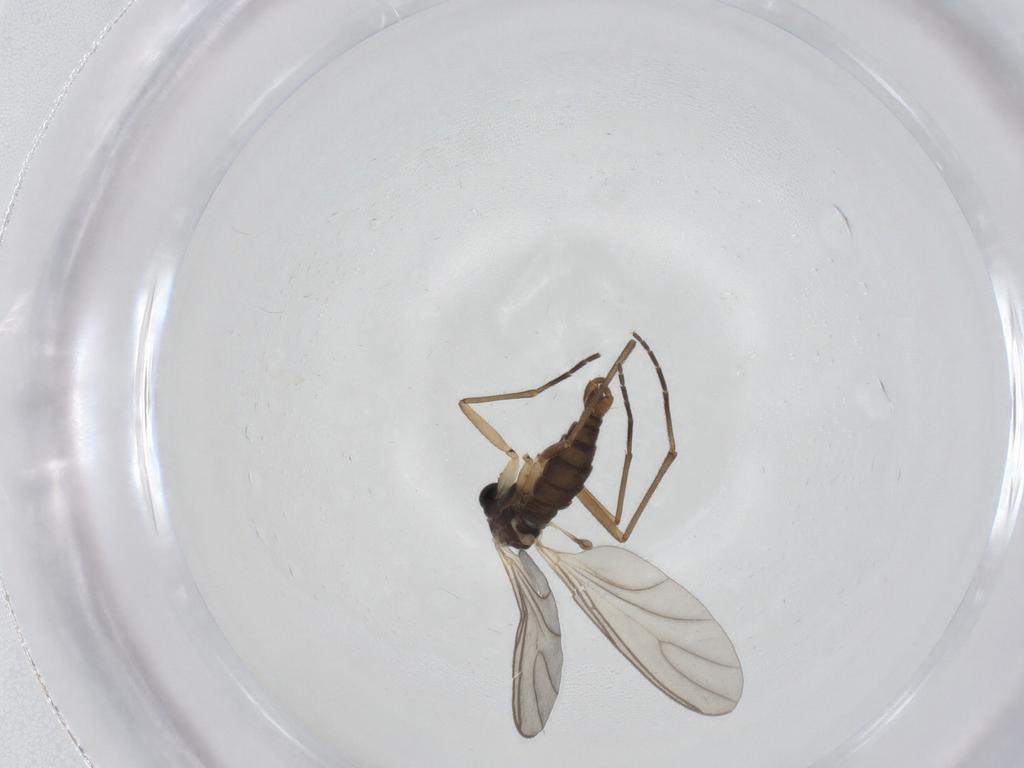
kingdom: Animalia
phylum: Arthropoda
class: Insecta
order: Diptera
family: Sciaridae
